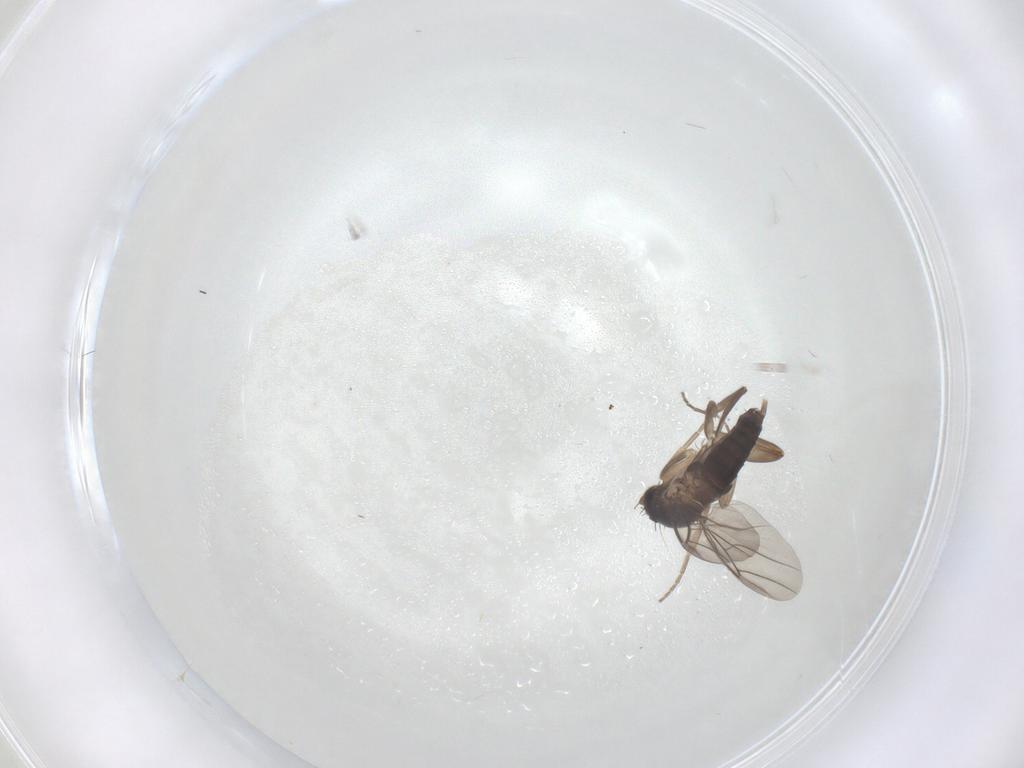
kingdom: Animalia
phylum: Arthropoda
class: Insecta
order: Diptera
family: Phoridae
